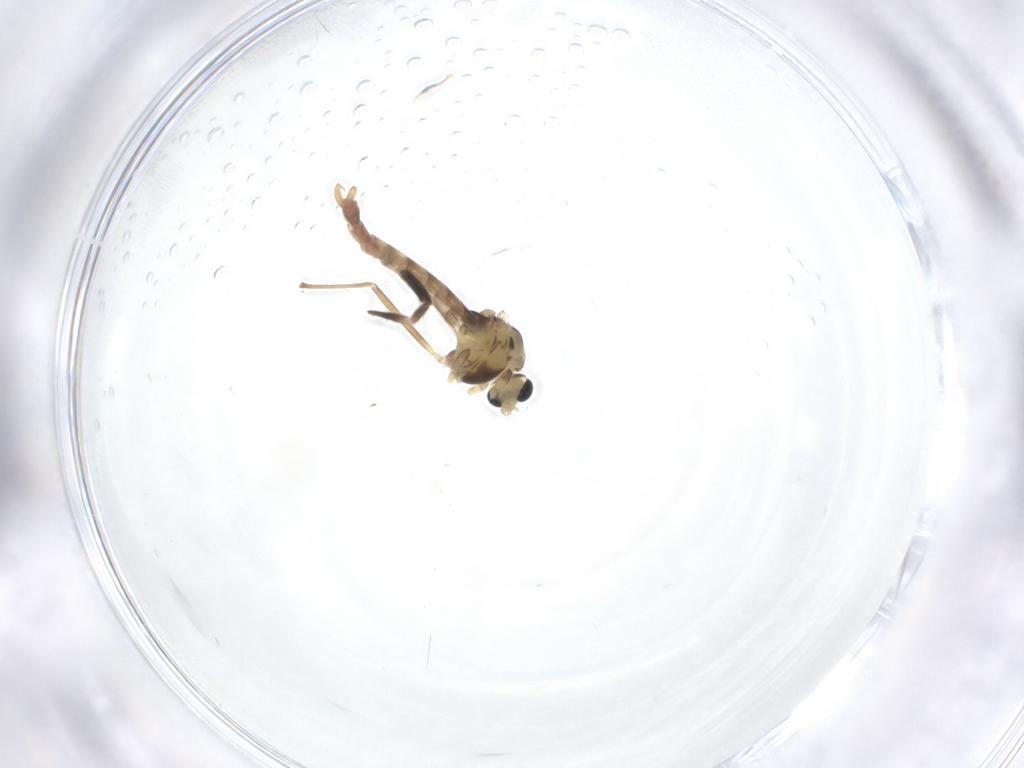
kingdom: Animalia
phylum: Arthropoda
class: Insecta
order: Diptera
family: Chironomidae
